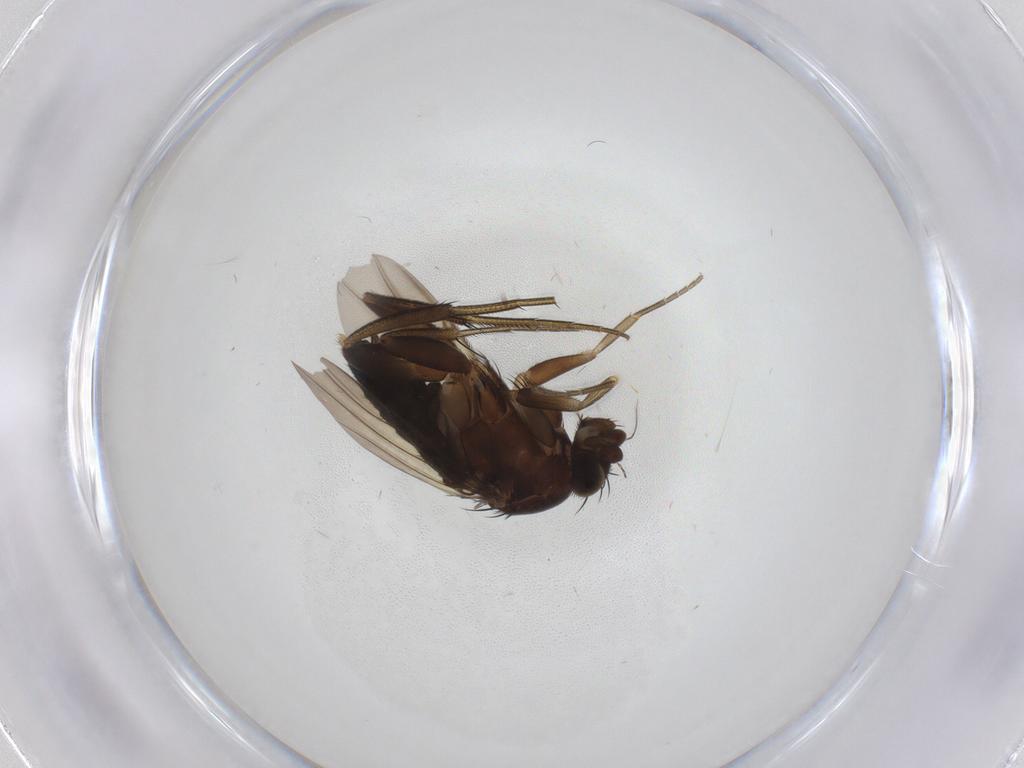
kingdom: Animalia
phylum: Arthropoda
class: Insecta
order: Diptera
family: Phoridae
